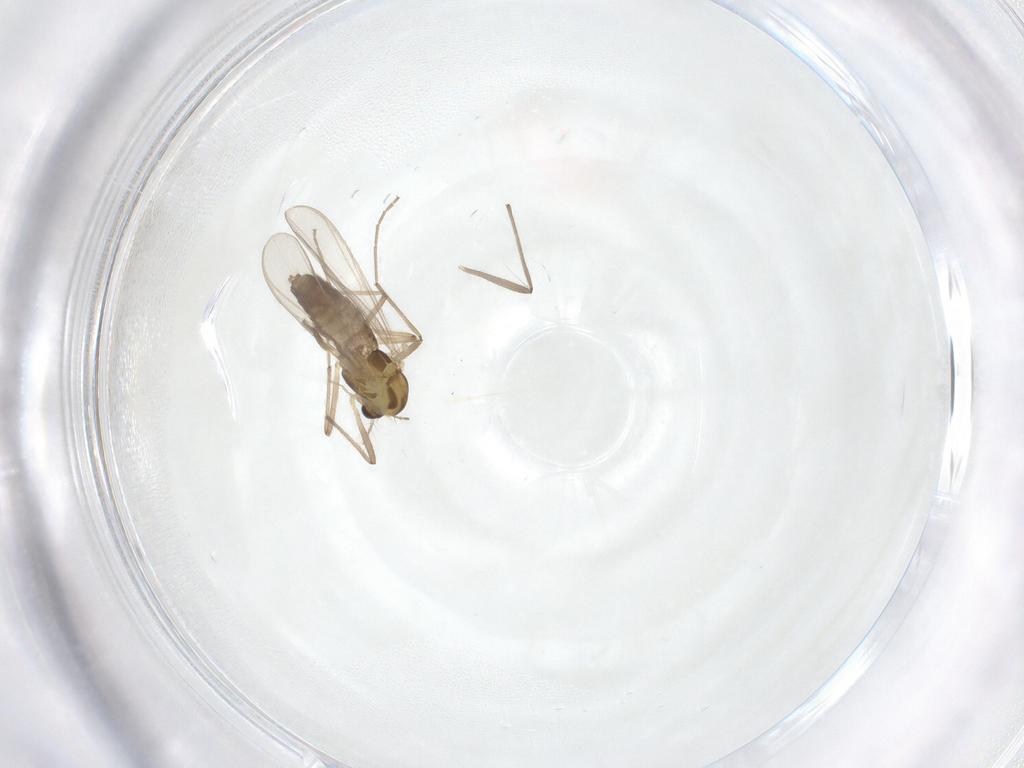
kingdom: Animalia
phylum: Arthropoda
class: Insecta
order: Diptera
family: Chironomidae
